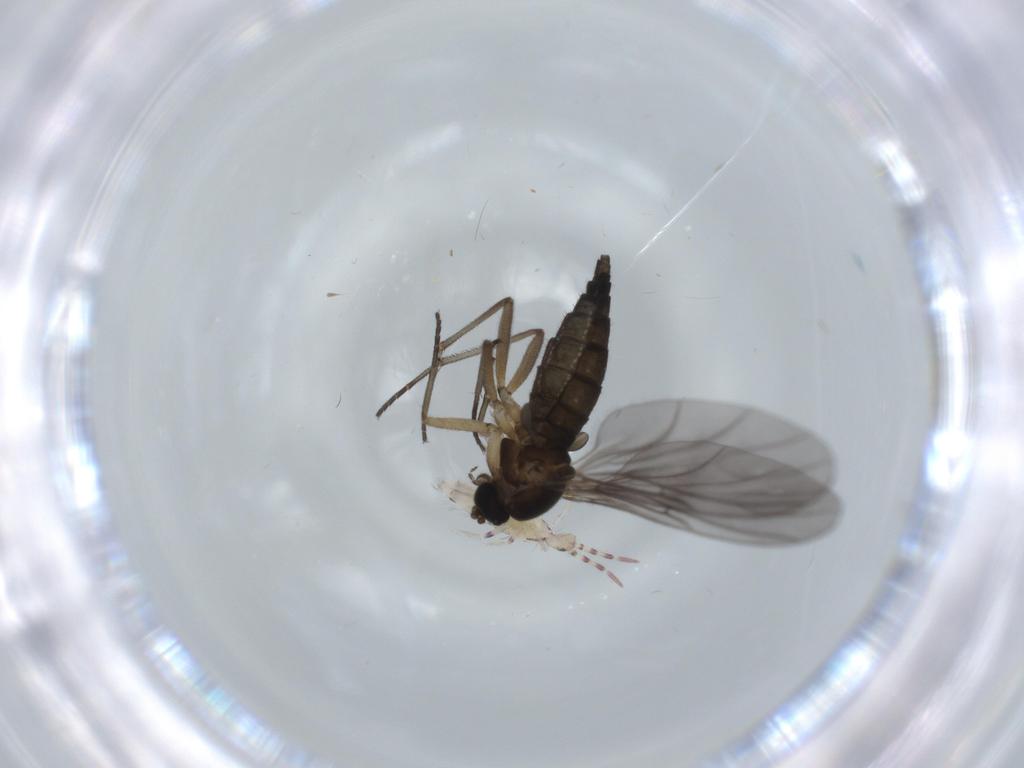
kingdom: Animalia
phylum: Arthropoda
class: Insecta
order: Diptera
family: Phoridae
